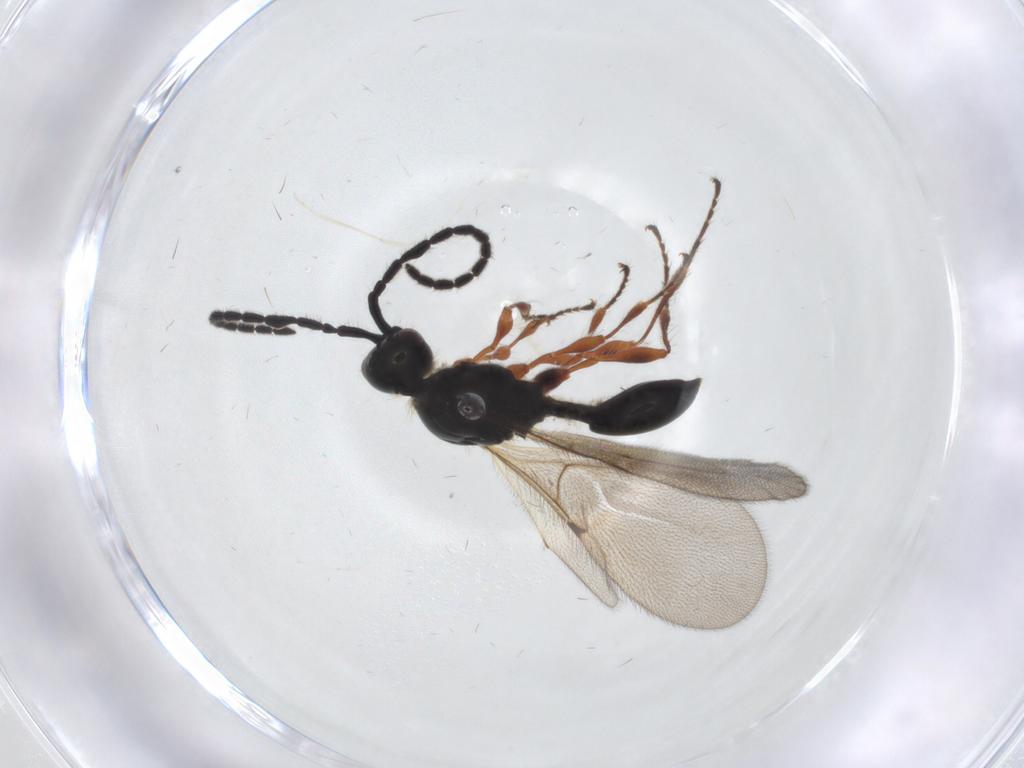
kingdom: Animalia
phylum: Arthropoda
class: Insecta
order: Hymenoptera
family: Diapriidae
